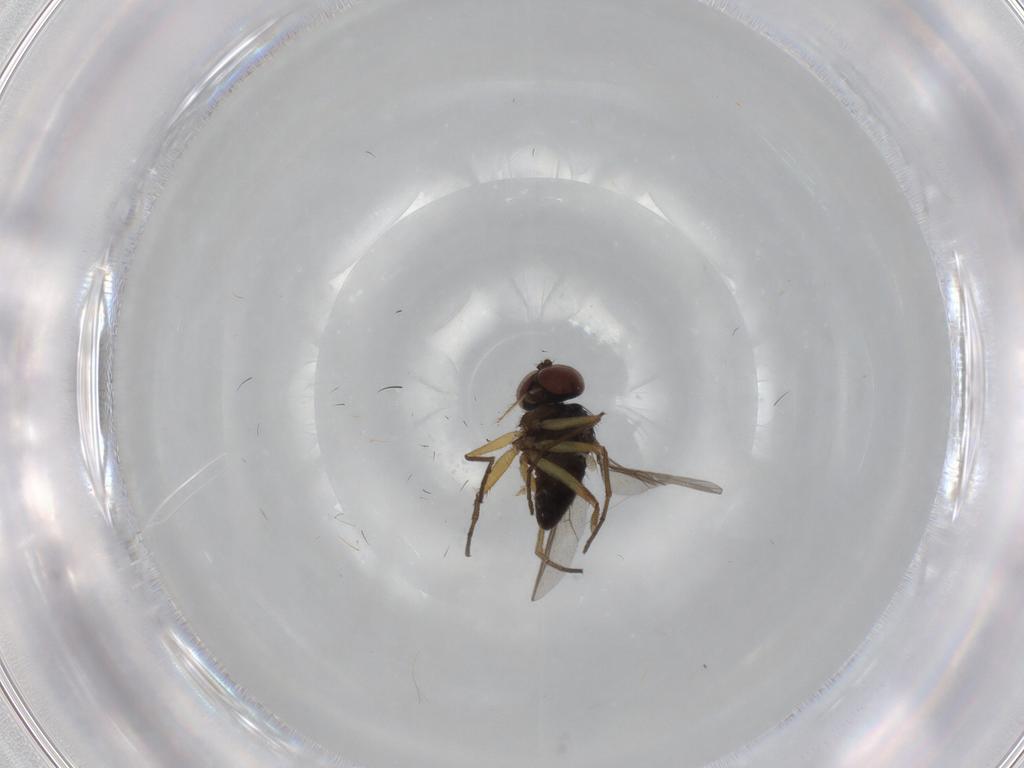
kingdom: Animalia
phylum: Arthropoda
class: Insecta
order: Diptera
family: Dolichopodidae
